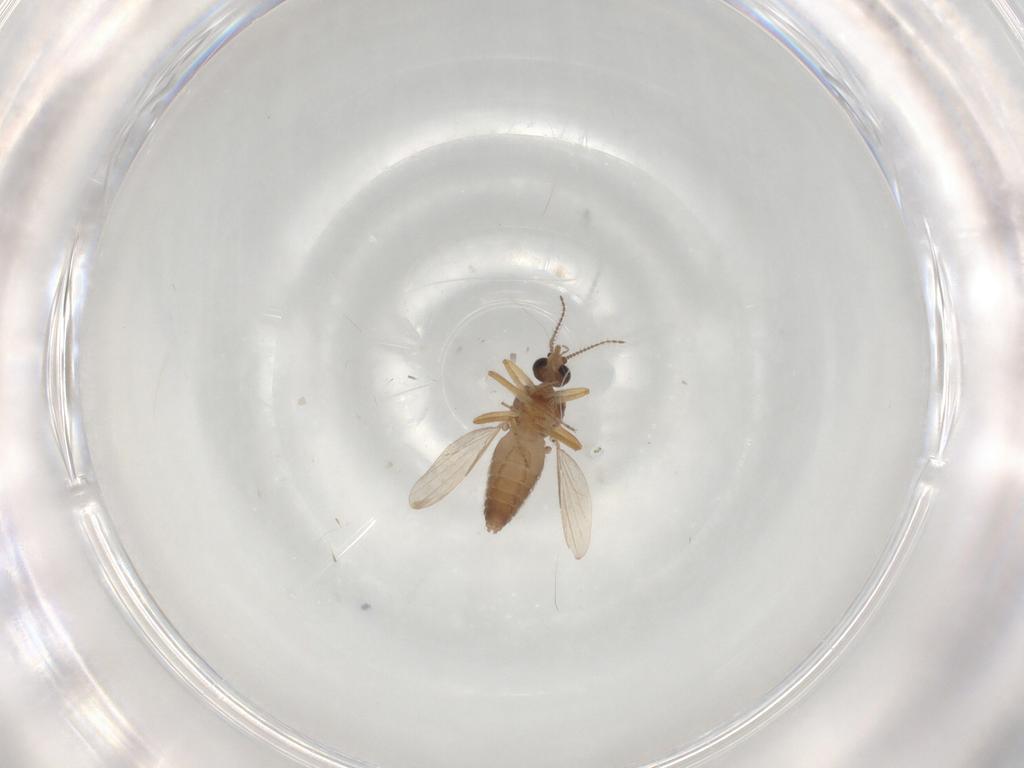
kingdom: Animalia
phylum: Arthropoda
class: Insecta
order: Diptera
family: Ceratopogonidae
